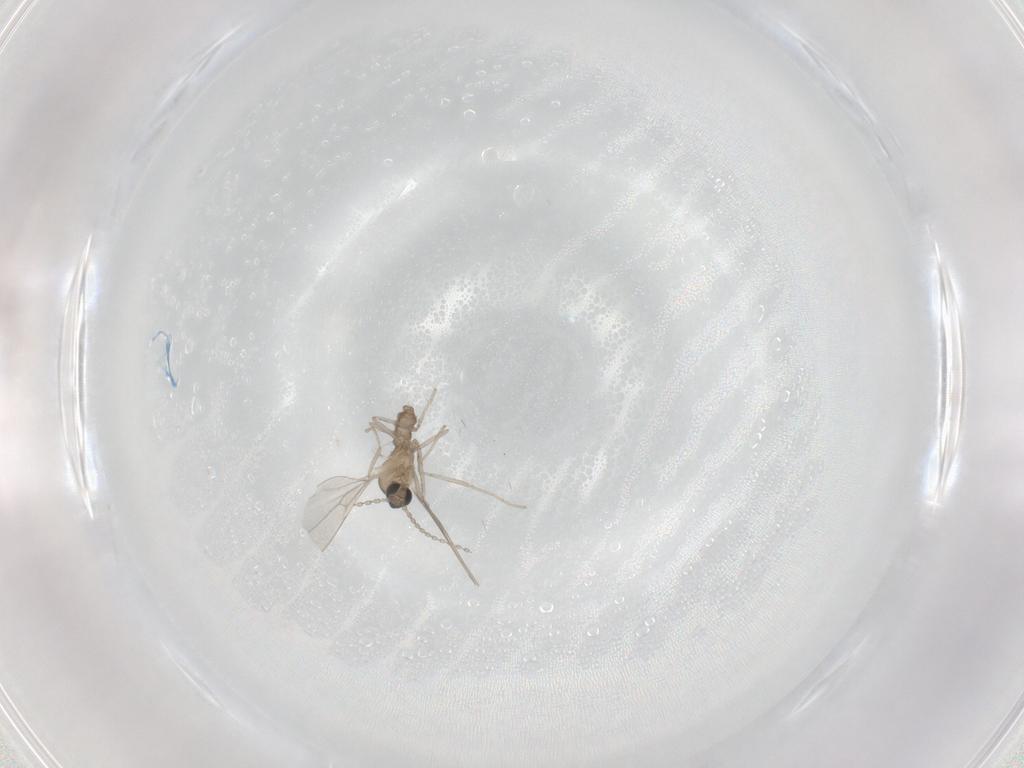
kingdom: Animalia
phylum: Arthropoda
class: Insecta
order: Diptera
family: Cecidomyiidae
